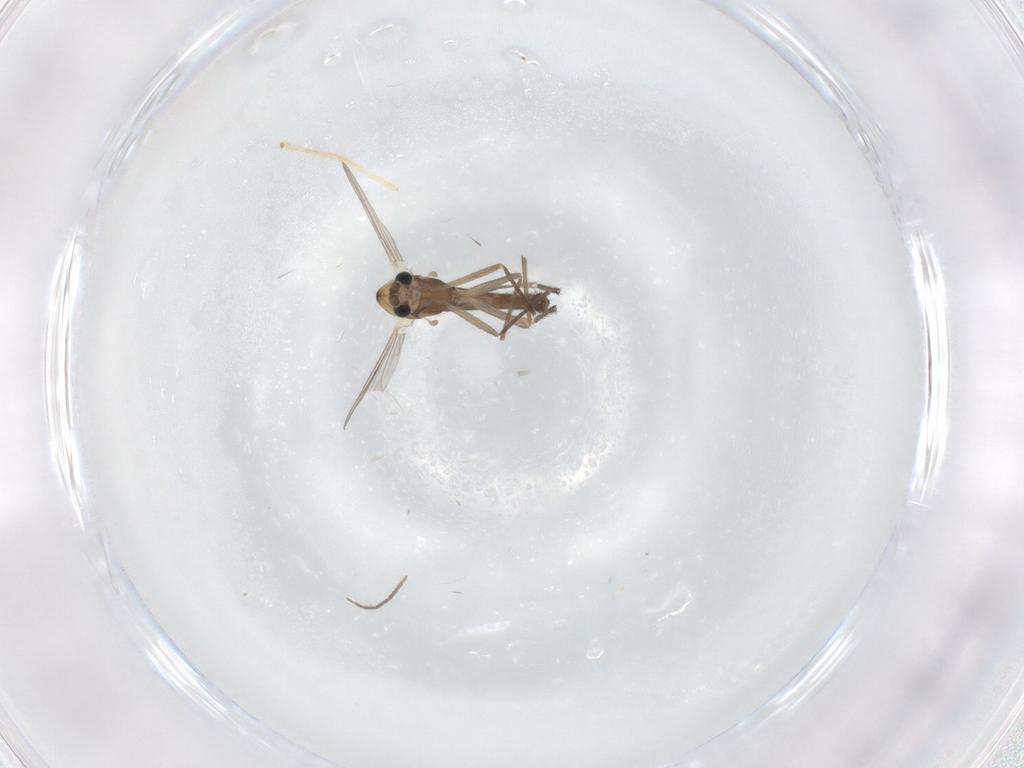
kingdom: Animalia
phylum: Arthropoda
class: Insecta
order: Diptera
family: Chironomidae
